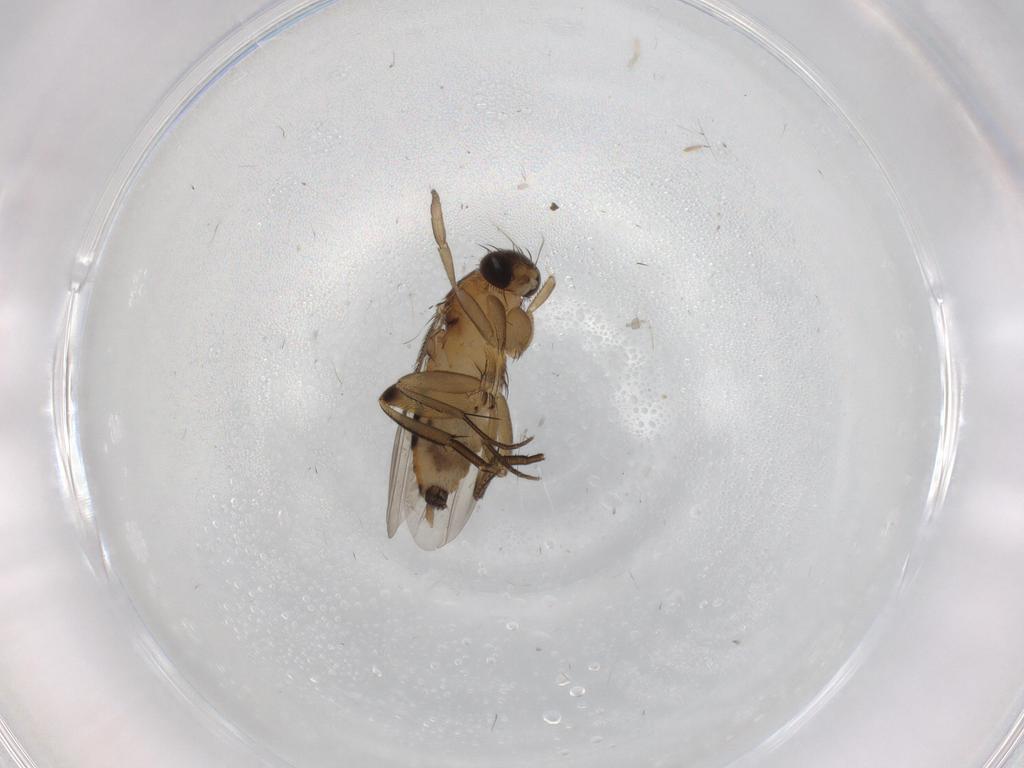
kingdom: Animalia
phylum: Arthropoda
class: Insecta
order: Diptera
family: Phoridae
